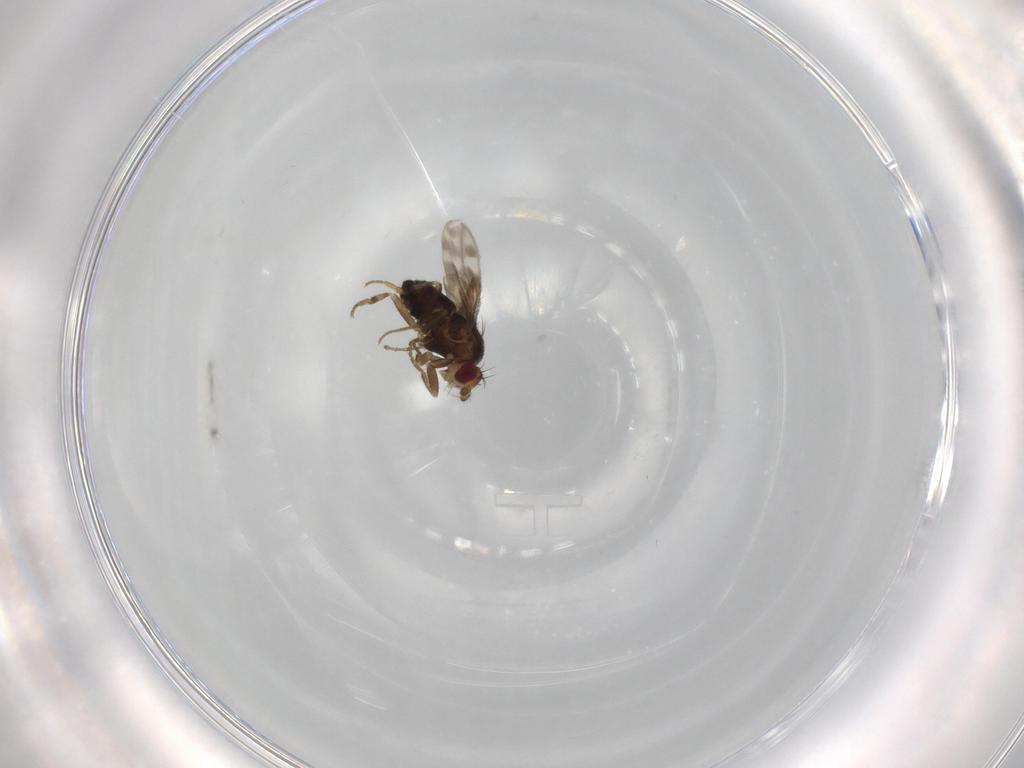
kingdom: Animalia
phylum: Arthropoda
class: Insecta
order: Diptera
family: Sphaeroceridae
